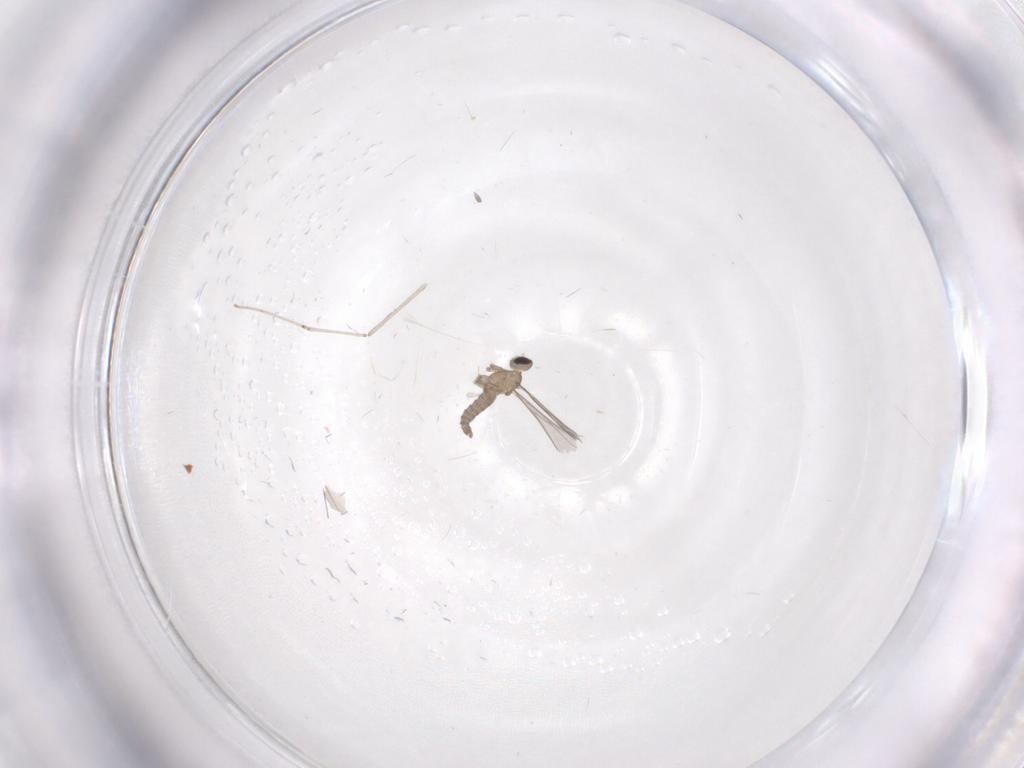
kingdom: Animalia
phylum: Arthropoda
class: Insecta
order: Diptera
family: Cecidomyiidae
